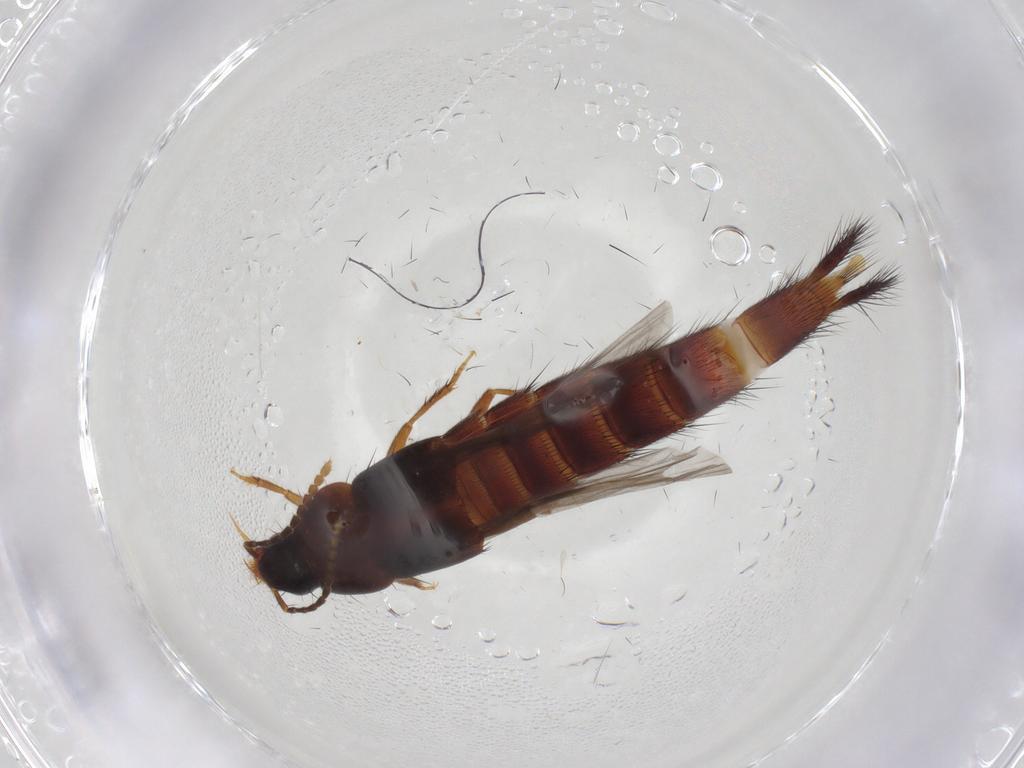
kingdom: Animalia
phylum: Arthropoda
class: Insecta
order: Coleoptera
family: Staphylinidae
